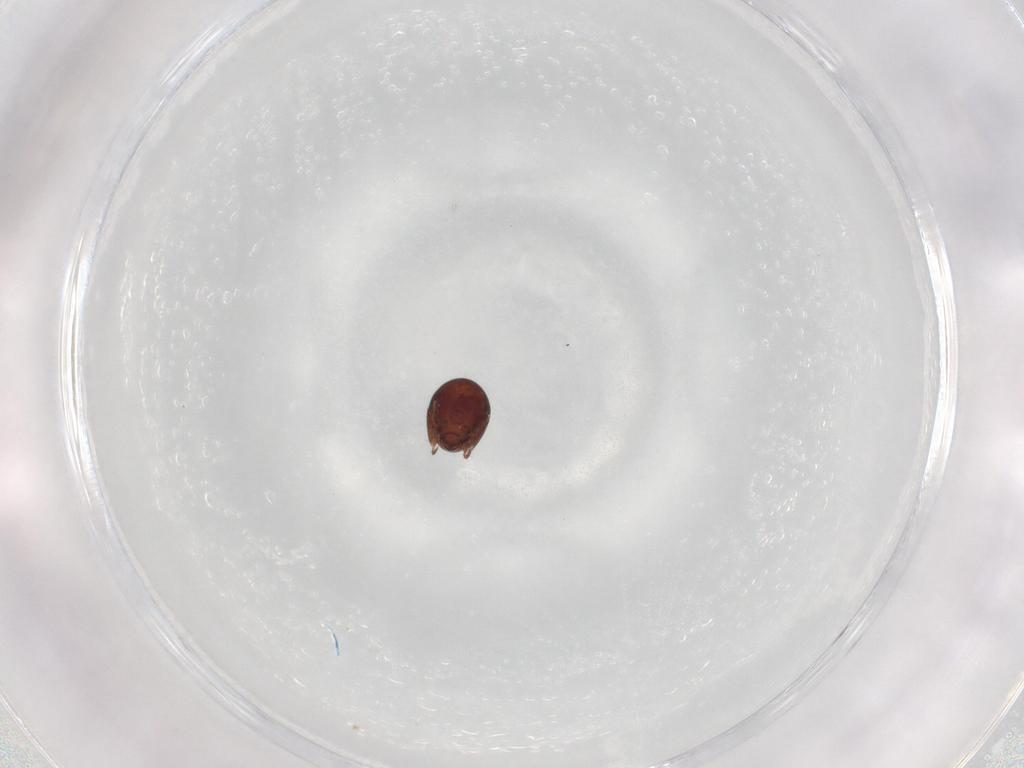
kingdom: Animalia
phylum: Arthropoda
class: Arachnida
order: Sarcoptiformes
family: Galumnidae
